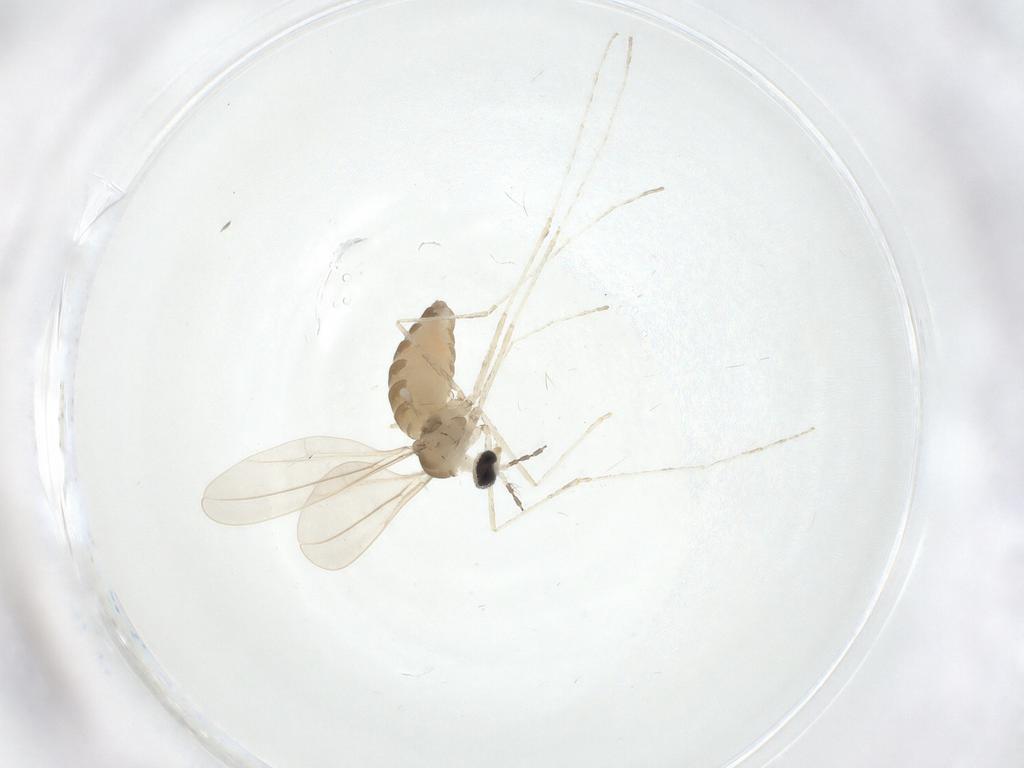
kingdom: Animalia
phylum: Arthropoda
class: Insecta
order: Diptera
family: Cecidomyiidae
